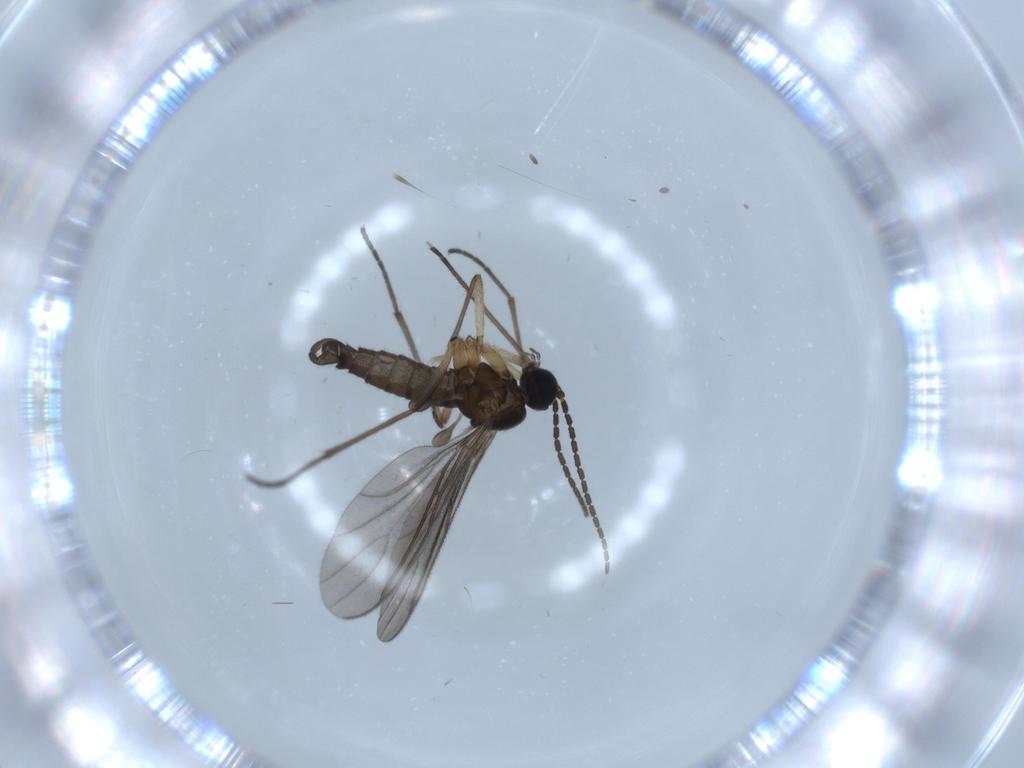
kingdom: Animalia
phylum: Arthropoda
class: Insecta
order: Diptera
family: Sciaridae
